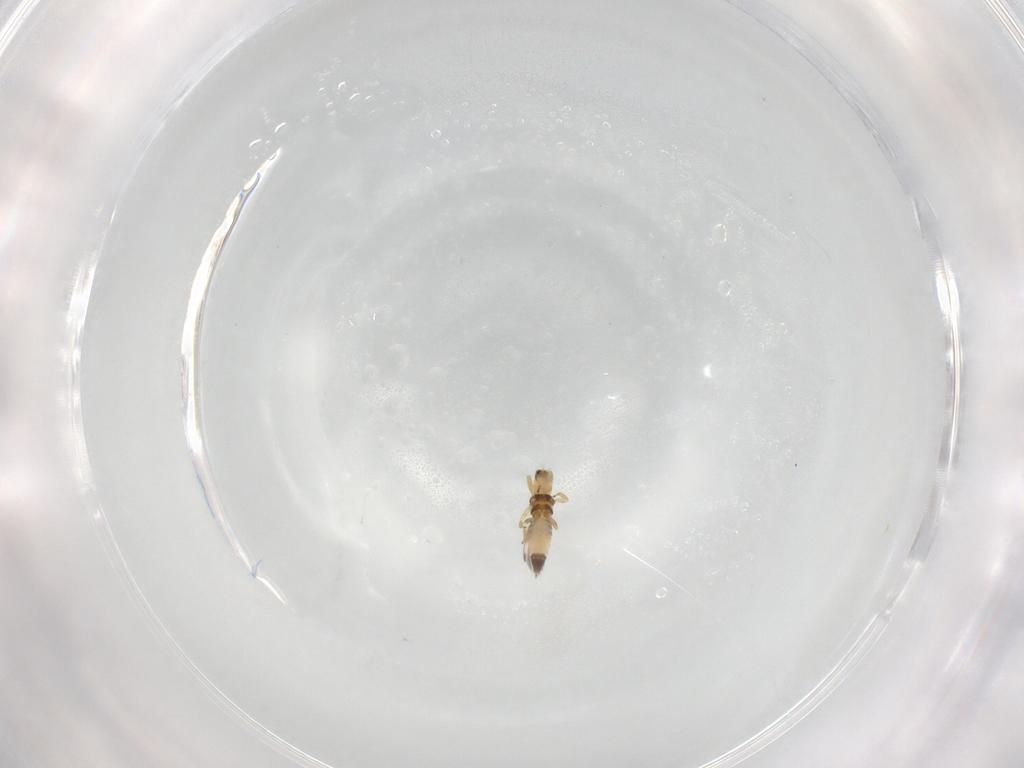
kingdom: Animalia
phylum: Arthropoda
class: Insecta
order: Thysanoptera
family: Thripidae
